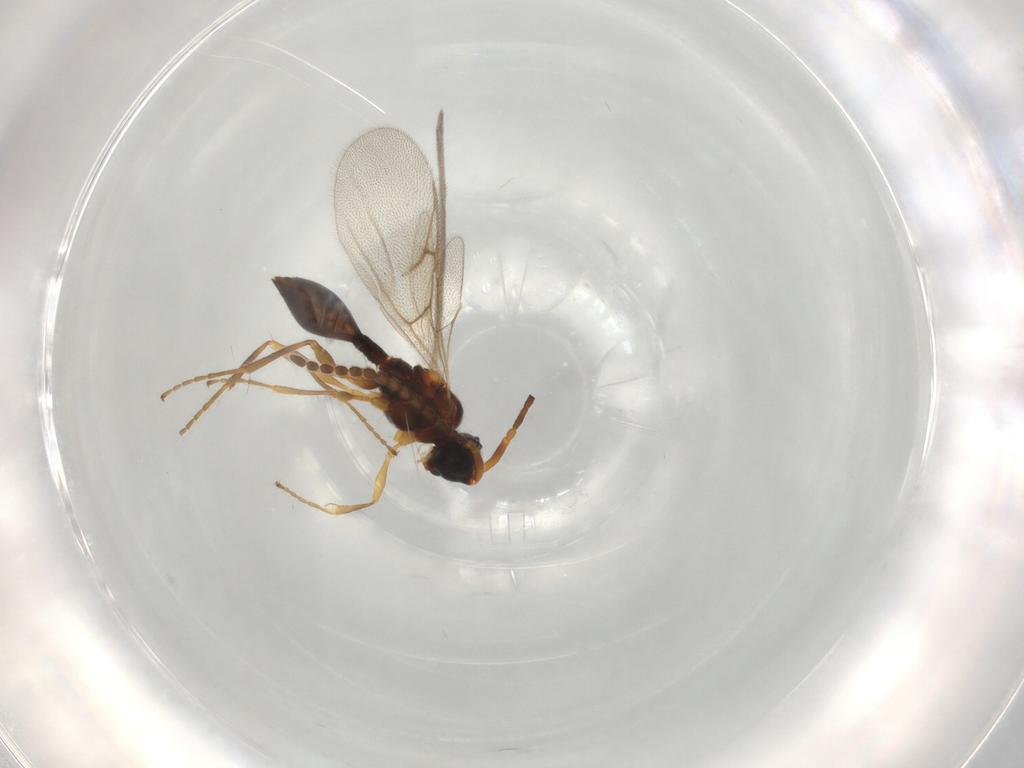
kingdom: Animalia
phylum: Arthropoda
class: Insecta
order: Hymenoptera
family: Diapriidae
